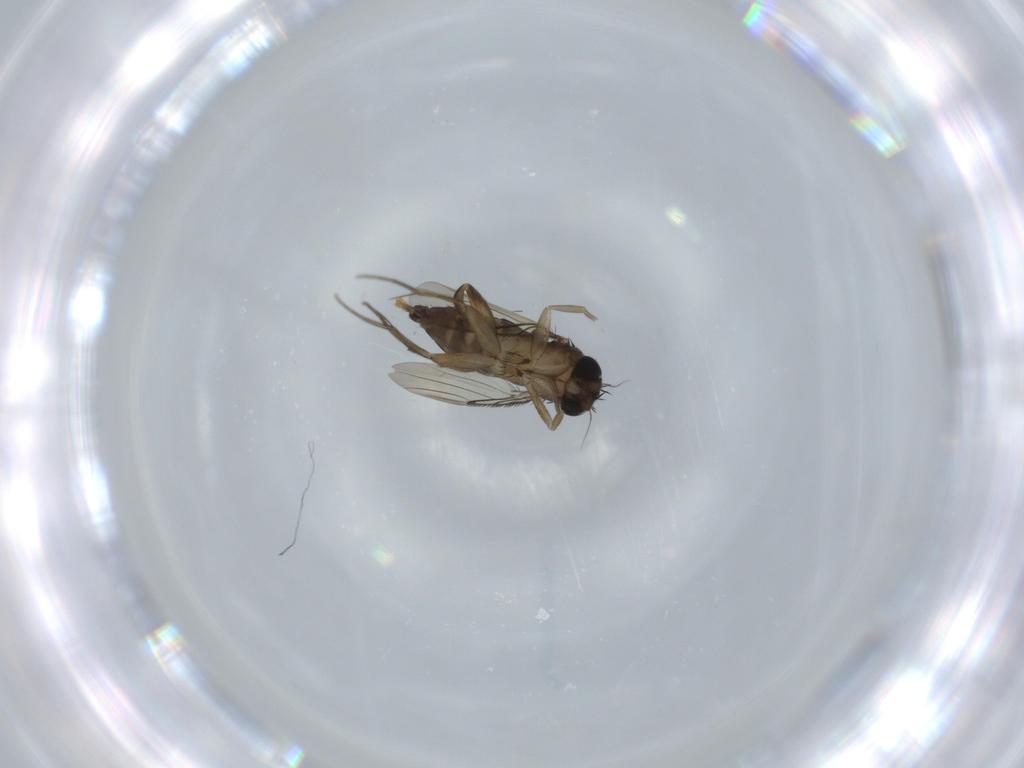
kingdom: Animalia
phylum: Arthropoda
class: Insecta
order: Diptera
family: Phoridae
